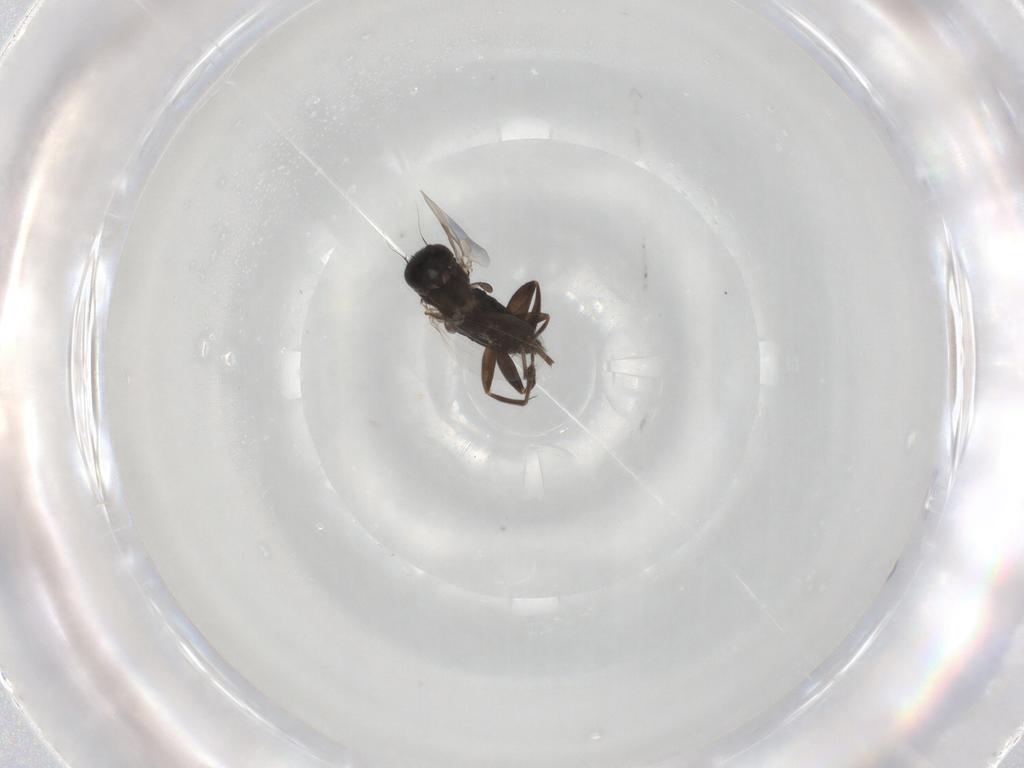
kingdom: Animalia
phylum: Arthropoda
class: Insecta
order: Diptera
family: Phoridae
